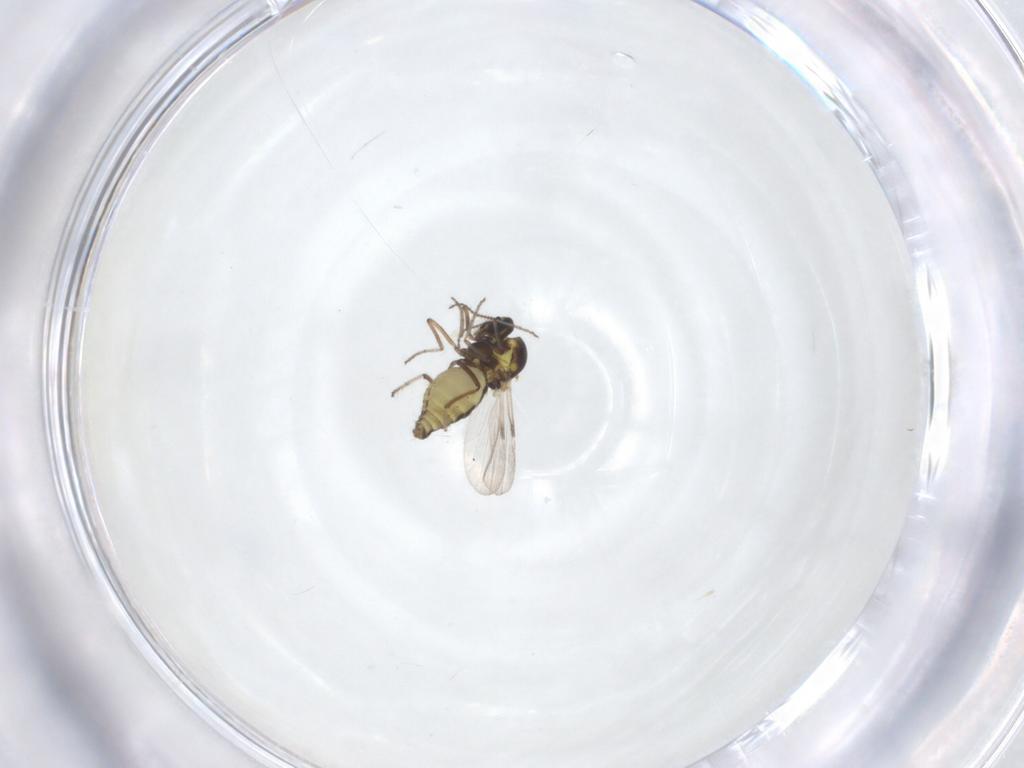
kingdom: Animalia
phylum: Arthropoda
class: Insecta
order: Diptera
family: Ceratopogonidae
